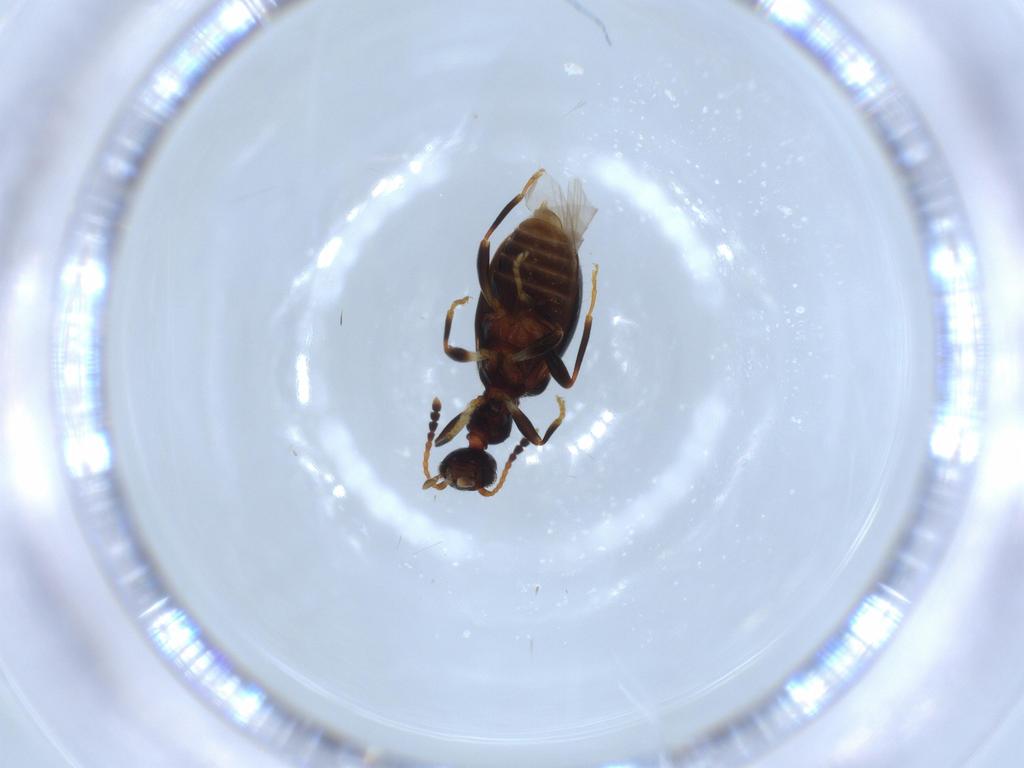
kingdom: Animalia
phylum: Arthropoda
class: Insecta
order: Coleoptera
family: Anthicidae
